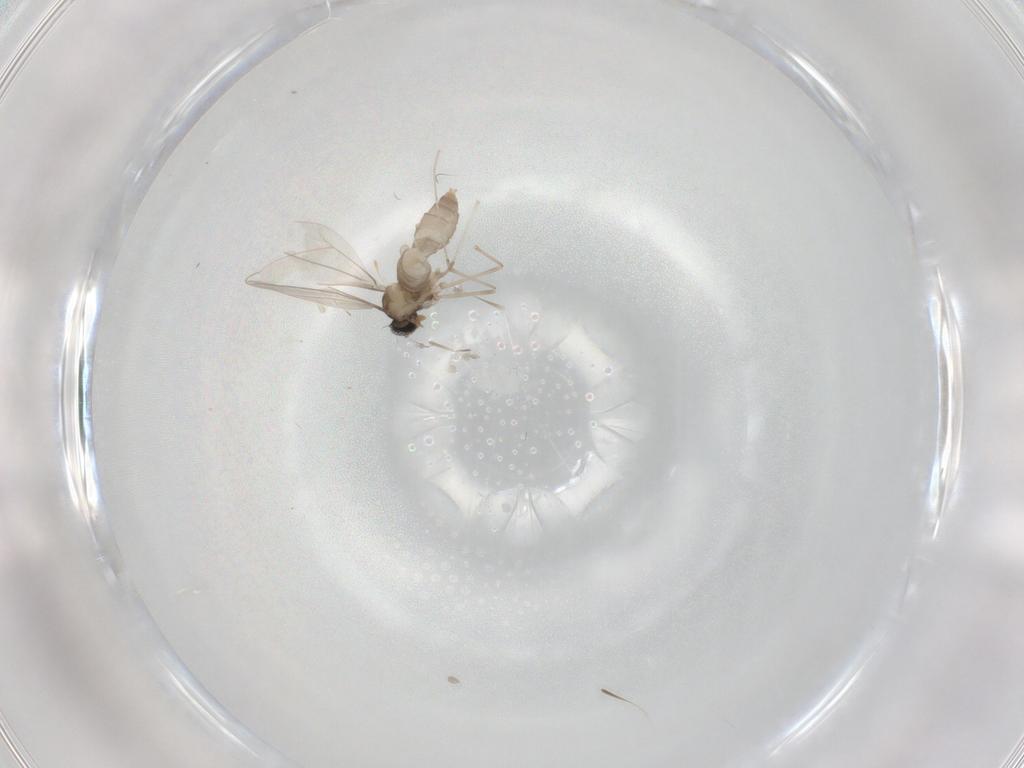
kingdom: Animalia
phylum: Arthropoda
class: Insecta
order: Diptera
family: Cecidomyiidae
